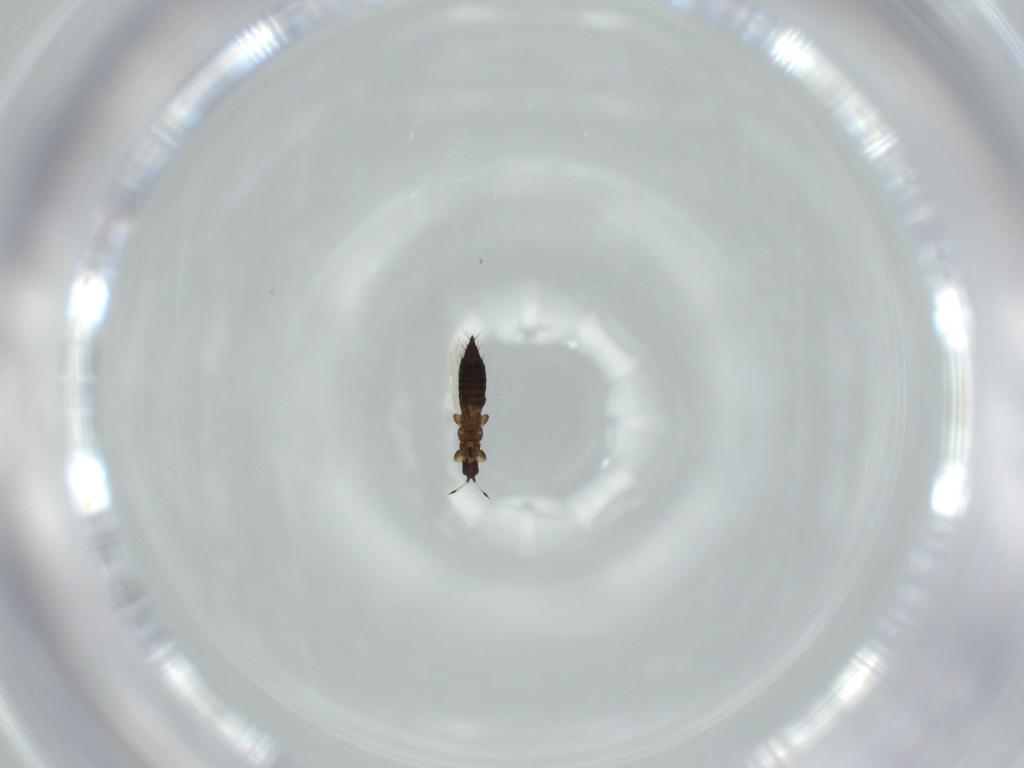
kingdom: Animalia
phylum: Arthropoda
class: Insecta
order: Thysanoptera
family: Thripidae
